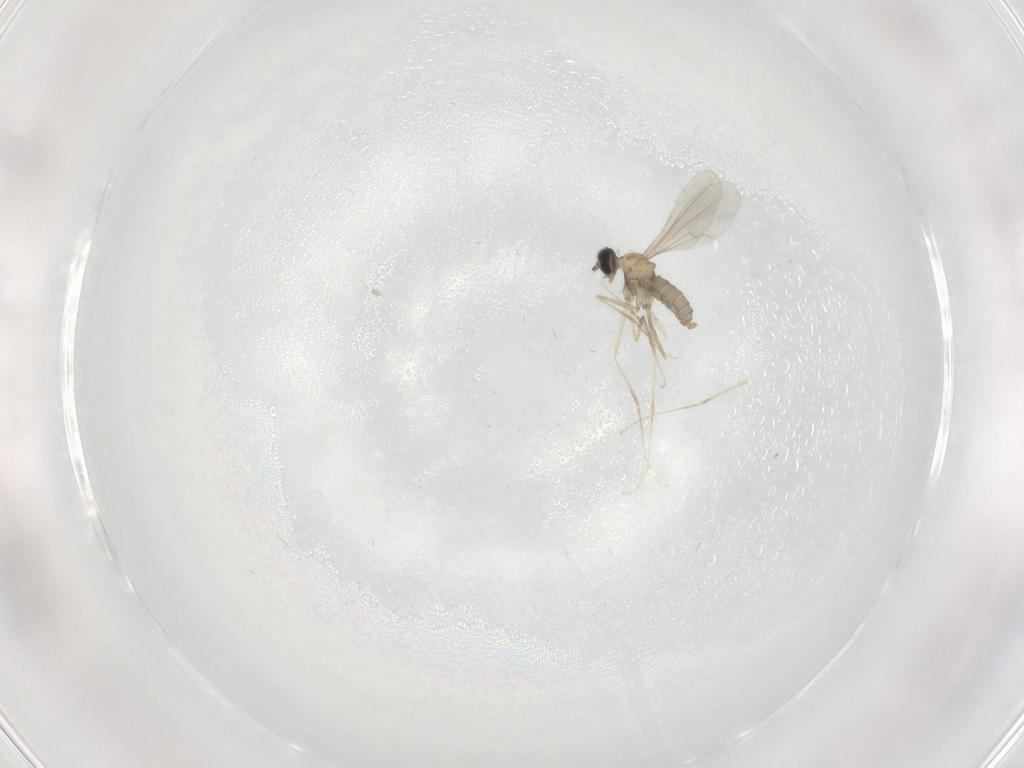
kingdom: Animalia
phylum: Arthropoda
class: Insecta
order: Diptera
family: Cecidomyiidae
